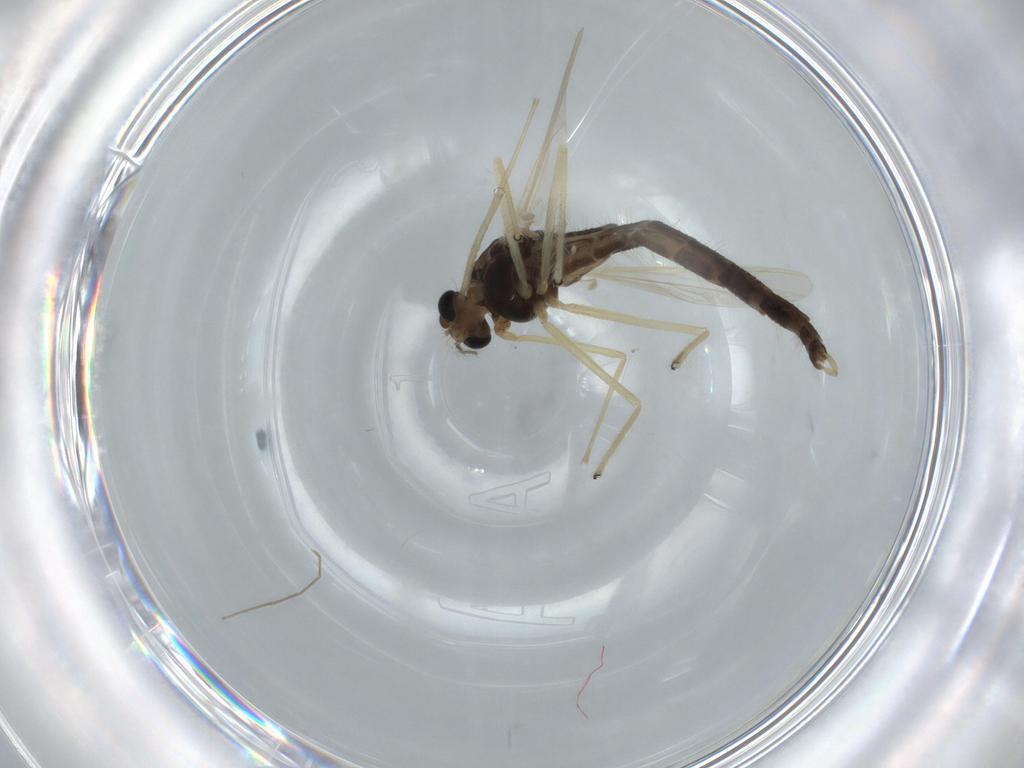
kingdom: Animalia
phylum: Arthropoda
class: Insecta
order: Diptera
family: Chironomidae
